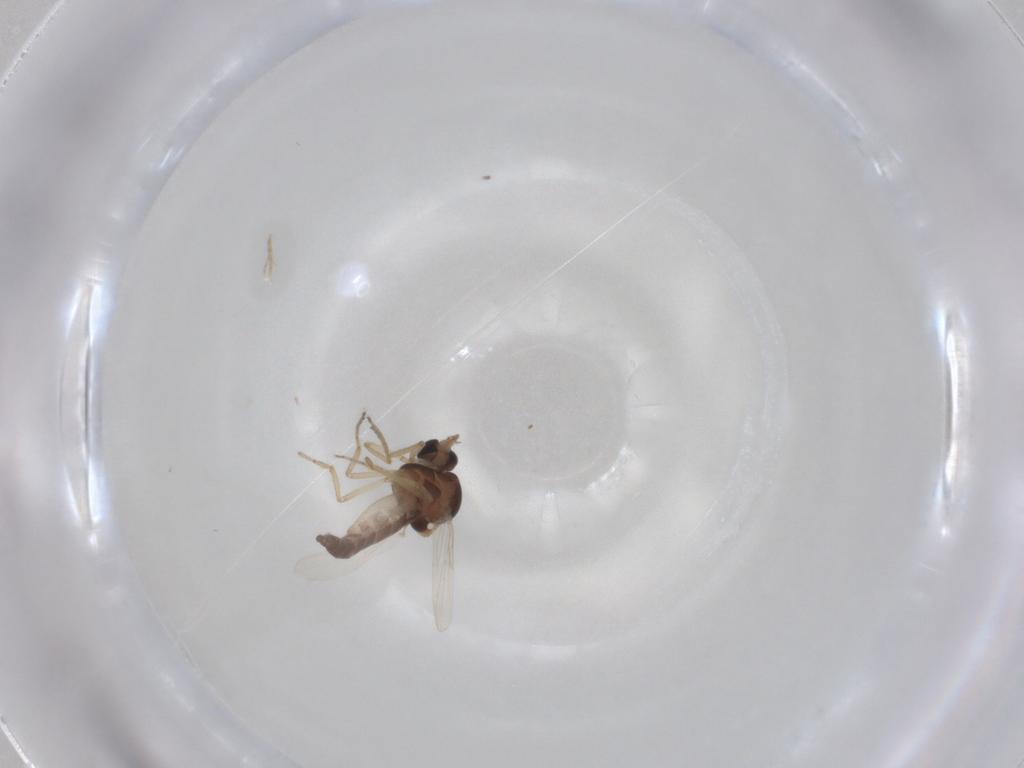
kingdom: Animalia
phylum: Arthropoda
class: Insecta
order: Diptera
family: Ceratopogonidae
